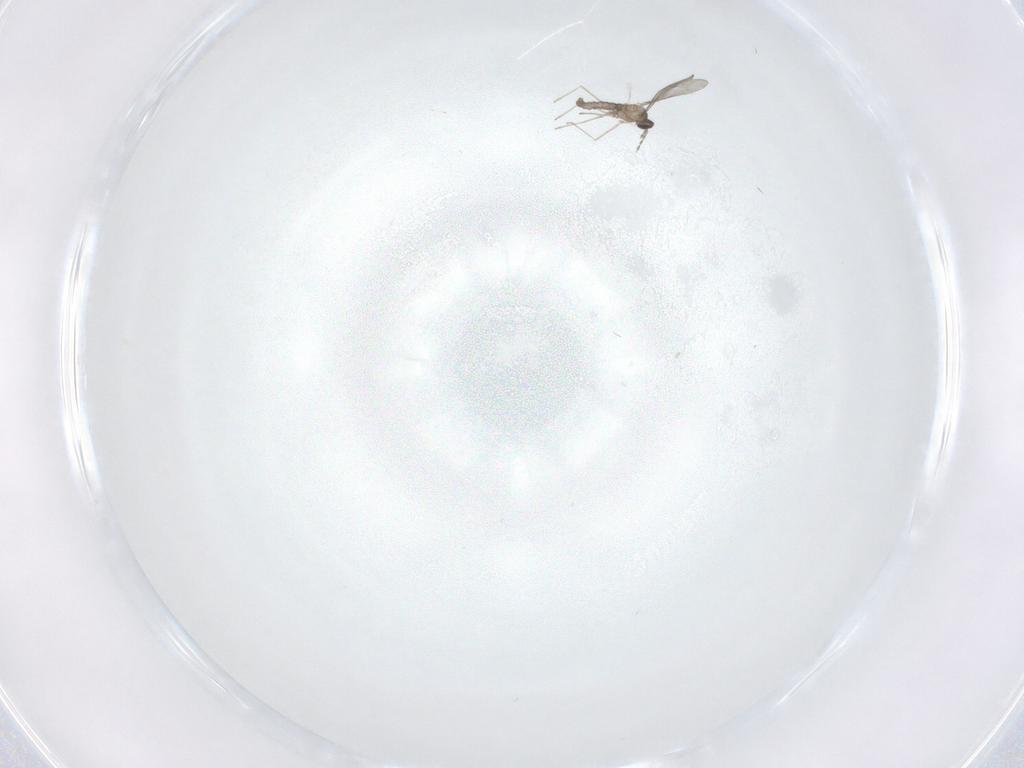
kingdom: Animalia
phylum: Arthropoda
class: Insecta
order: Diptera
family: Cecidomyiidae
